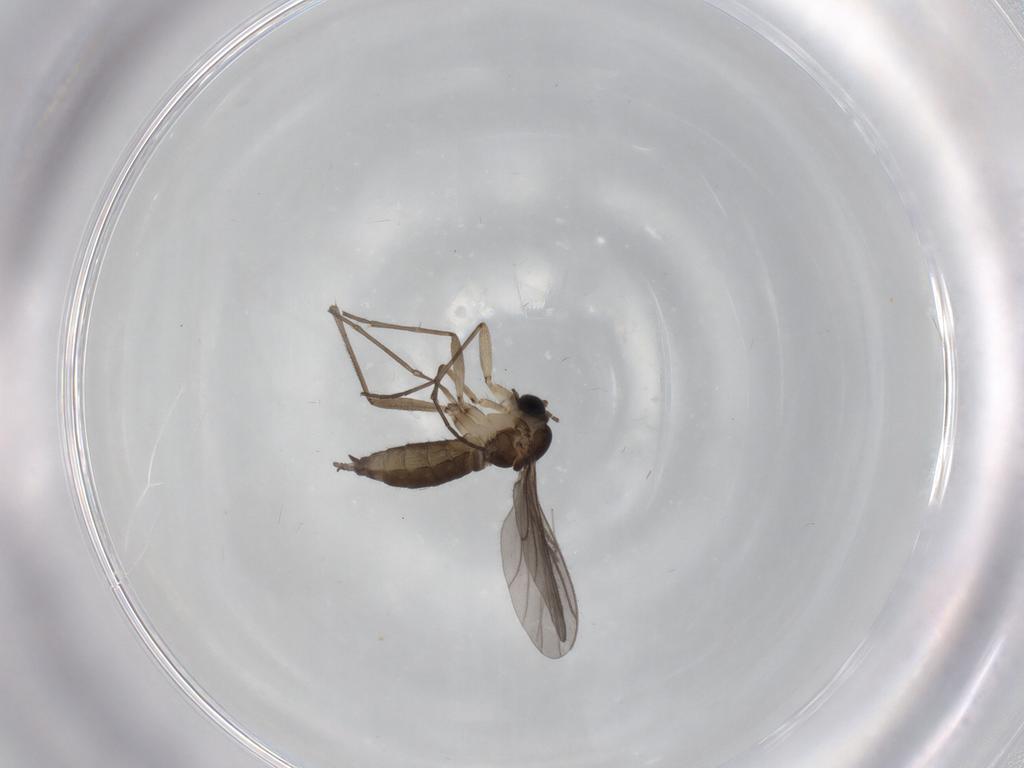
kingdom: Animalia
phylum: Arthropoda
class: Insecta
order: Diptera
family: Sciaridae
